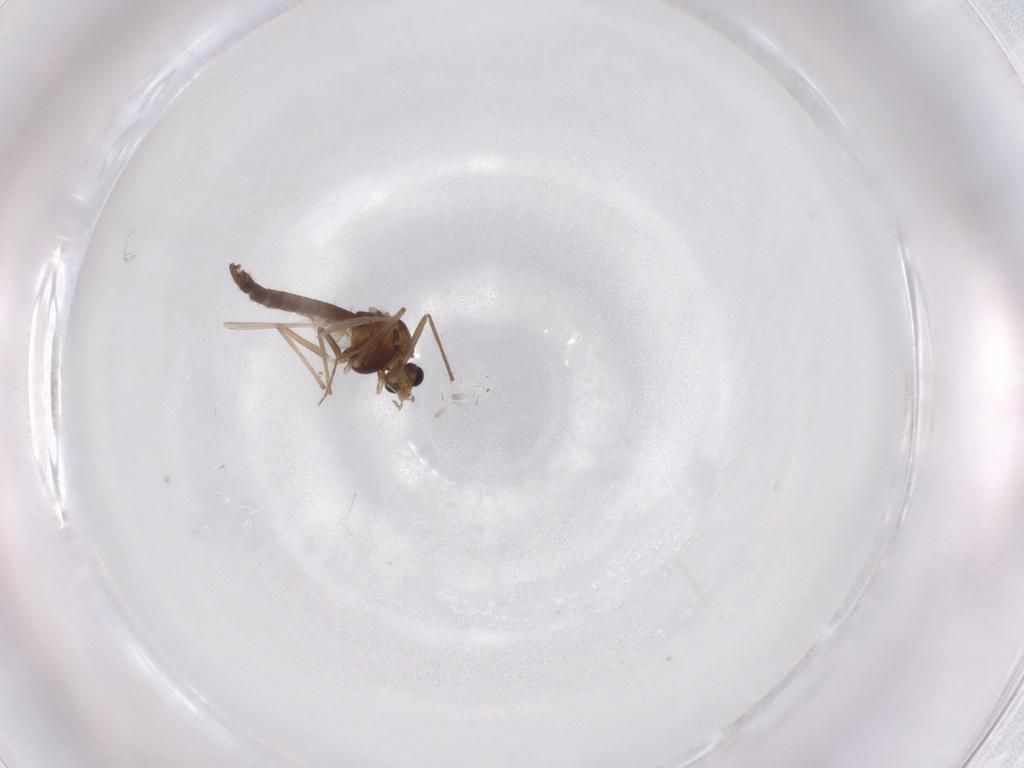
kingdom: Animalia
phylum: Arthropoda
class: Insecta
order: Diptera
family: Chironomidae
